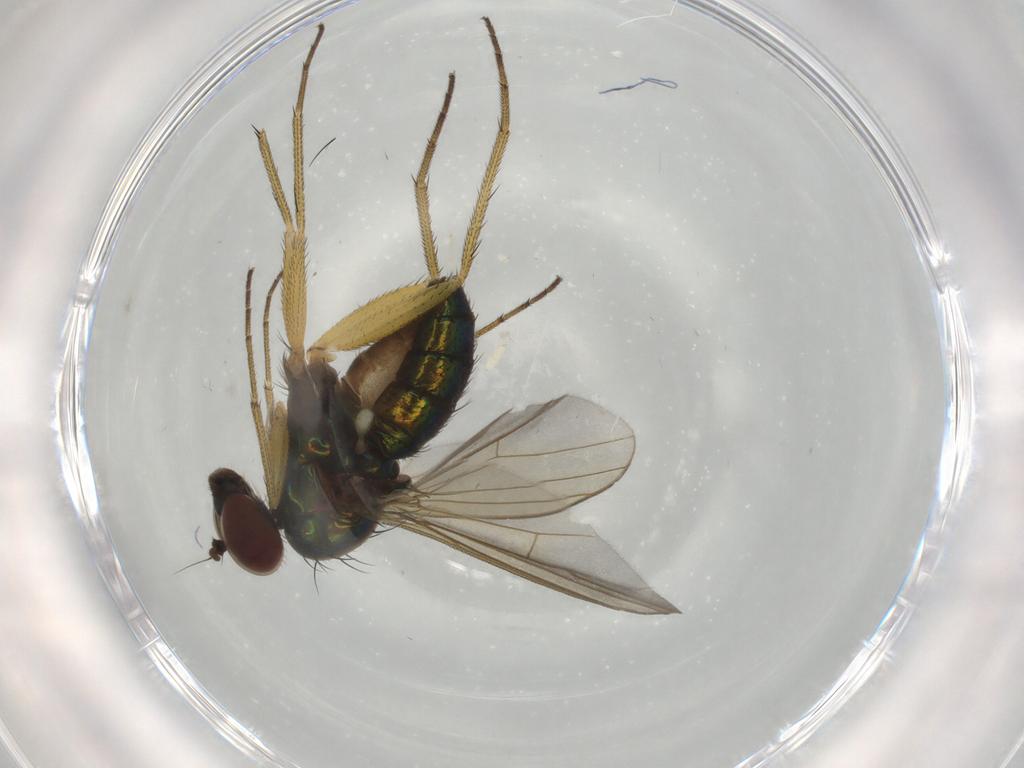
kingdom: Animalia
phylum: Arthropoda
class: Insecta
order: Diptera
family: Dolichopodidae
